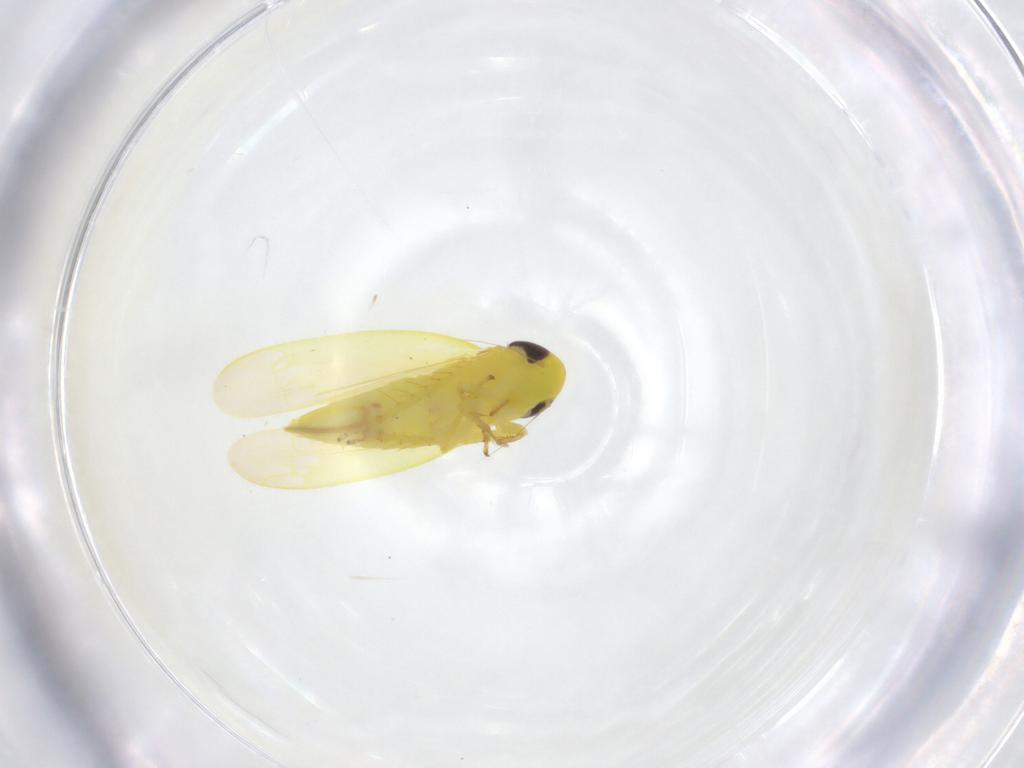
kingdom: Animalia
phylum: Arthropoda
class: Insecta
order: Hemiptera
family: Cicadellidae
